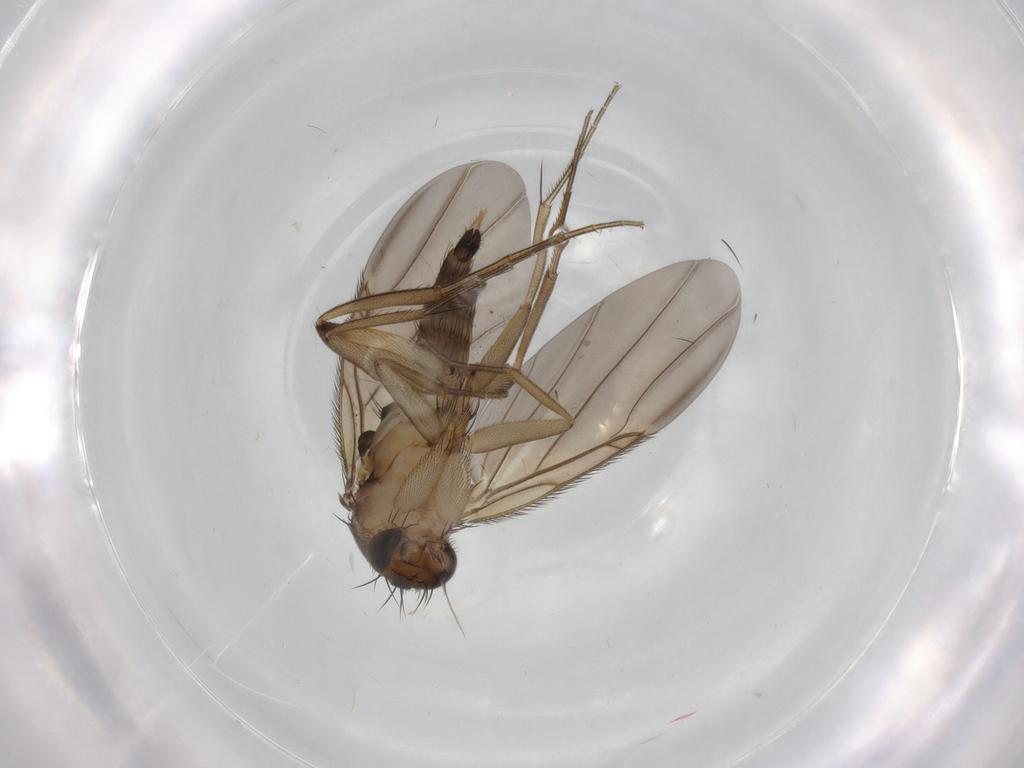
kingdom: Animalia
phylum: Arthropoda
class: Insecta
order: Diptera
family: Phoridae
